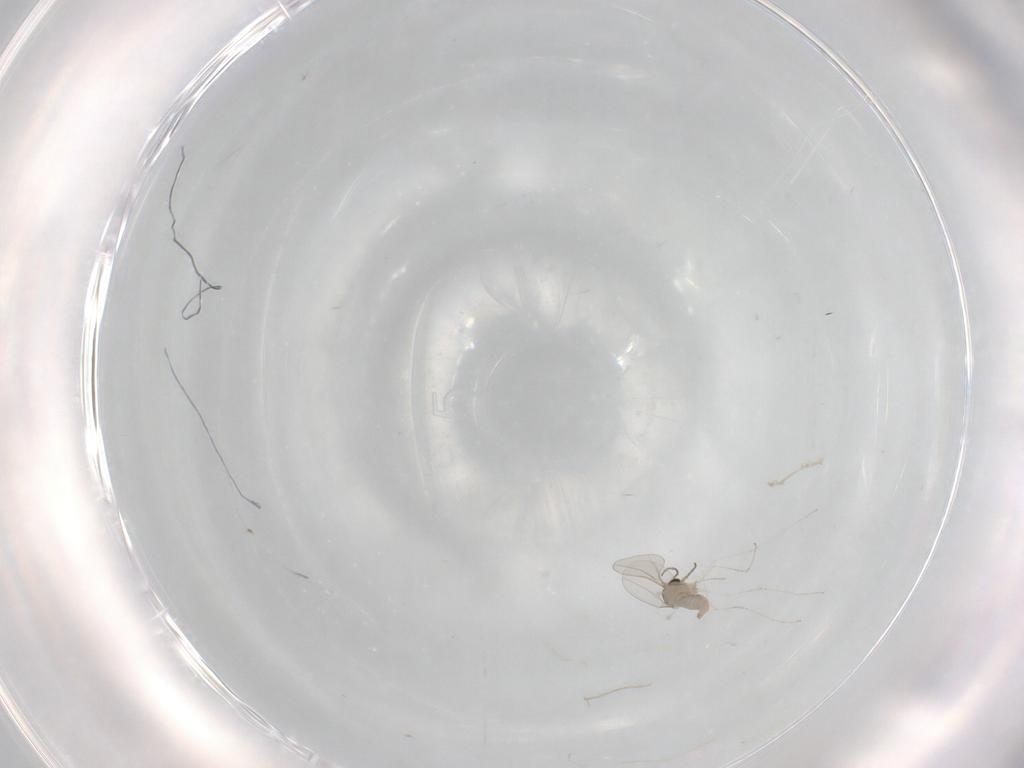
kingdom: Animalia
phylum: Arthropoda
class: Insecta
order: Diptera
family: Cecidomyiidae
